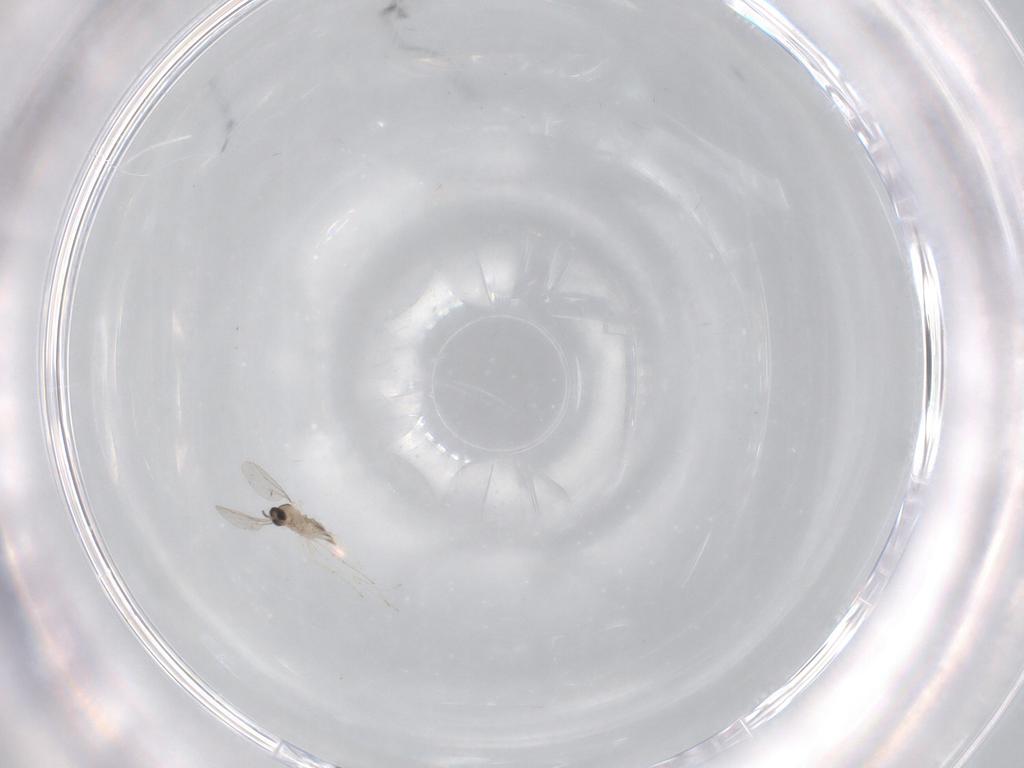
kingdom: Animalia
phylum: Arthropoda
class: Insecta
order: Diptera
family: Cecidomyiidae
